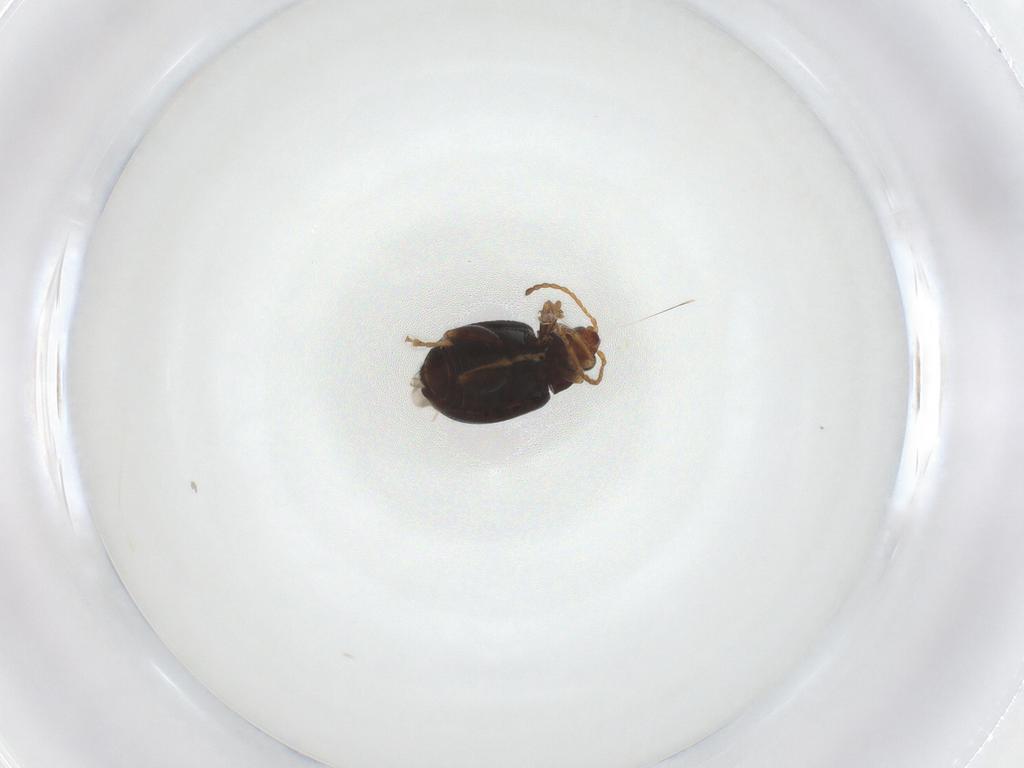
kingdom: Animalia
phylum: Arthropoda
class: Insecta
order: Coleoptera
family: Chrysomelidae
